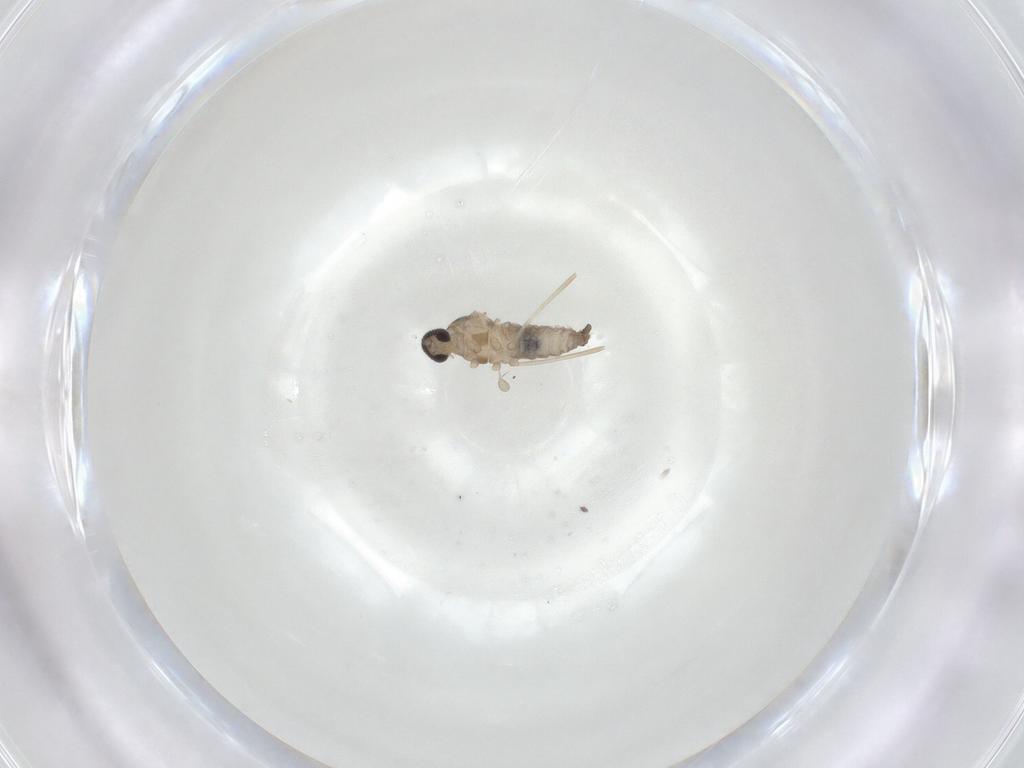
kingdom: Animalia
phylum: Arthropoda
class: Insecta
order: Diptera
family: Cecidomyiidae
